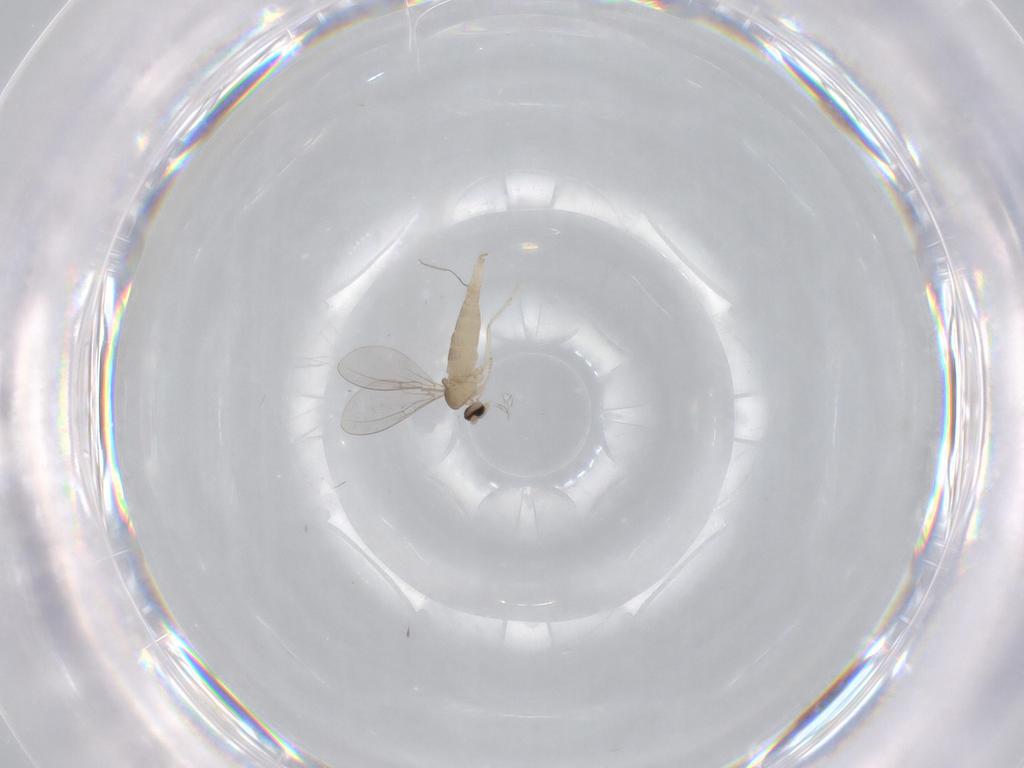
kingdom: Animalia
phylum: Arthropoda
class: Insecta
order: Diptera
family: Cecidomyiidae
